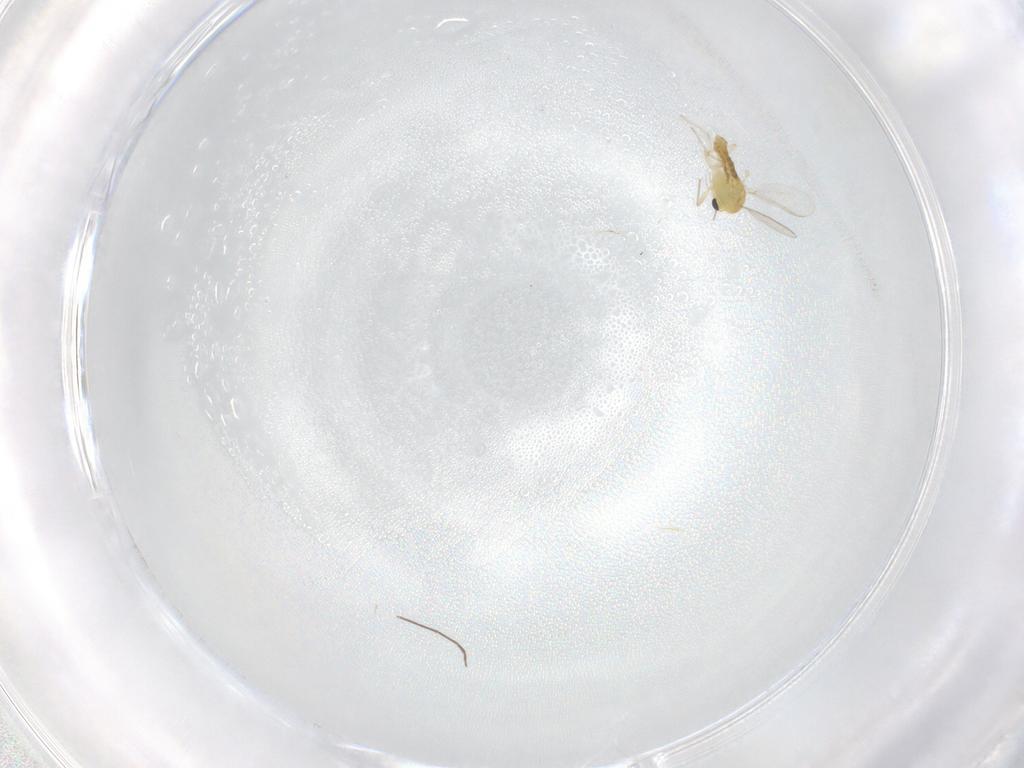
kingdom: Animalia
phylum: Arthropoda
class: Insecta
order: Diptera
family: Chironomidae
